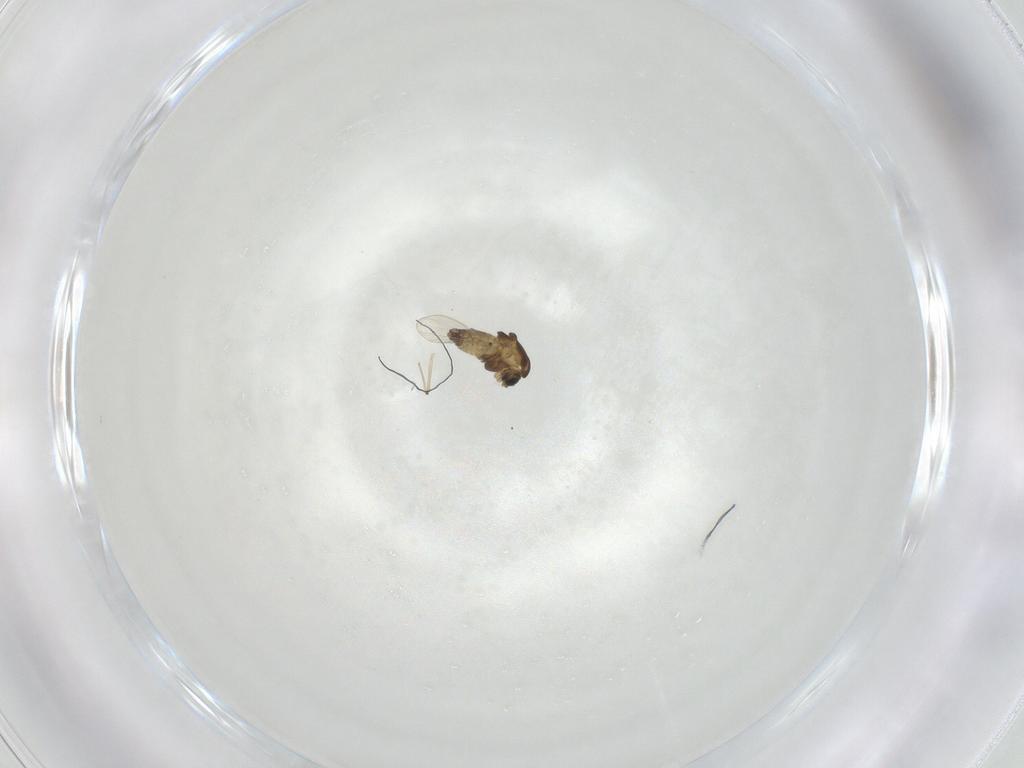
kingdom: Animalia
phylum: Arthropoda
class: Insecta
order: Diptera
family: Chironomidae
